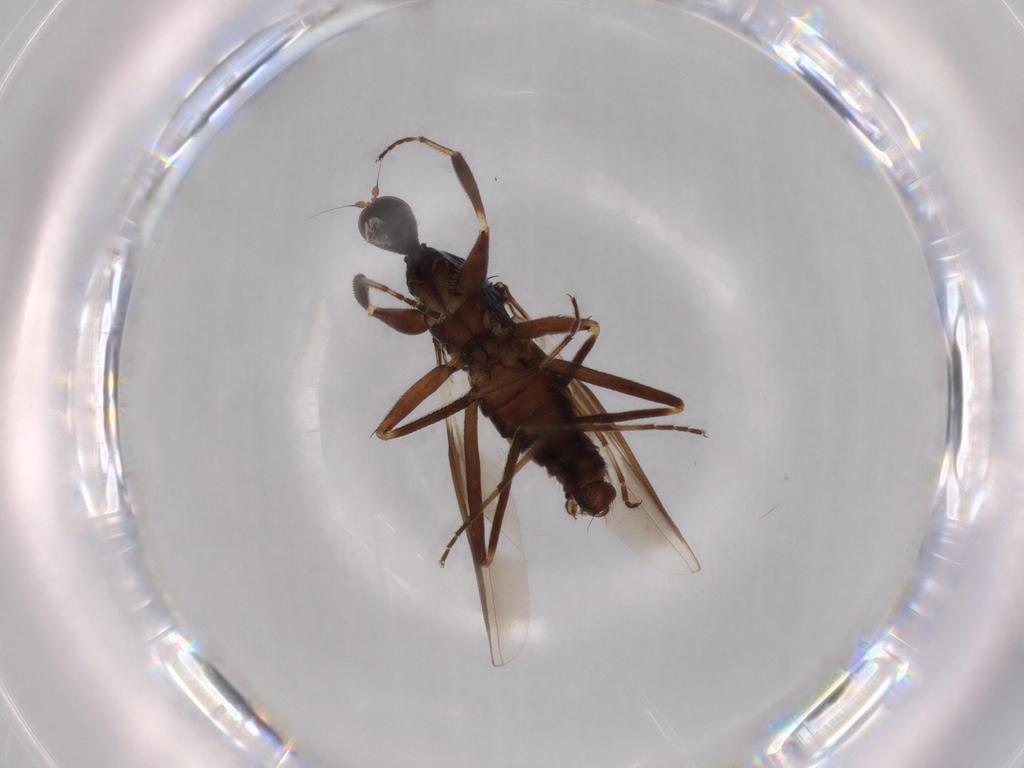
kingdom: Animalia
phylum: Arthropoda
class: Insecta
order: Diptera
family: Hybotidae
